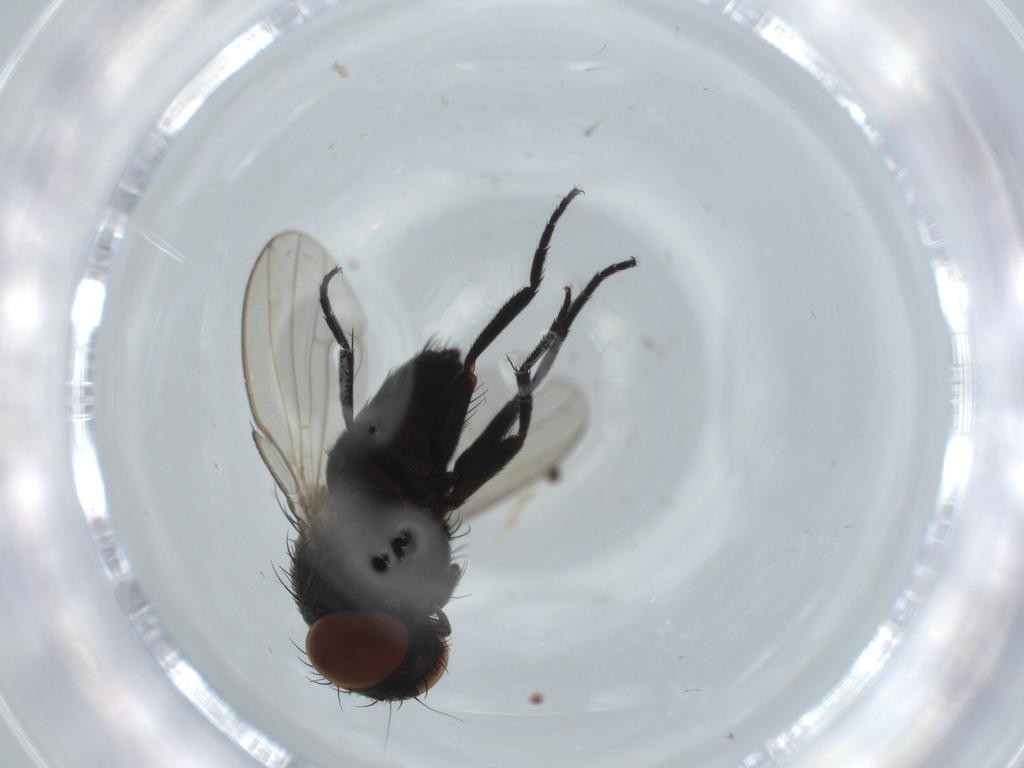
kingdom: Animalia
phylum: Arthropoda
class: Insecta
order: Diptera
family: Milichiidae
